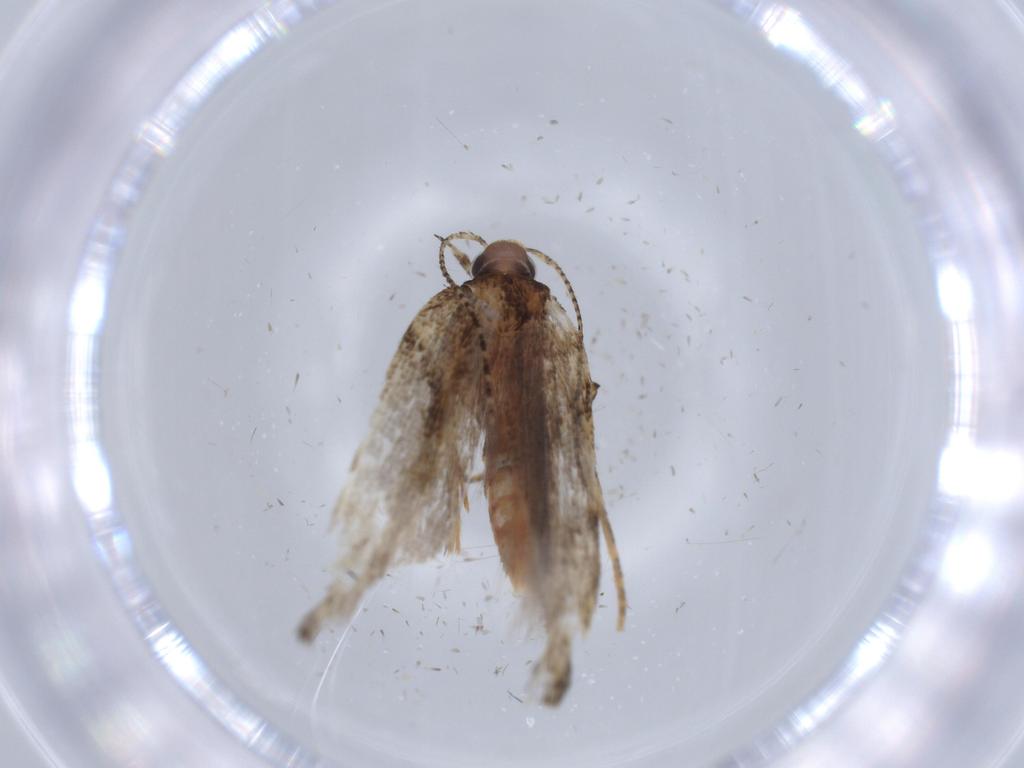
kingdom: Animalia
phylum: Arthropoda
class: Insecta
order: Lepidoptera
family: Gelechiidae
